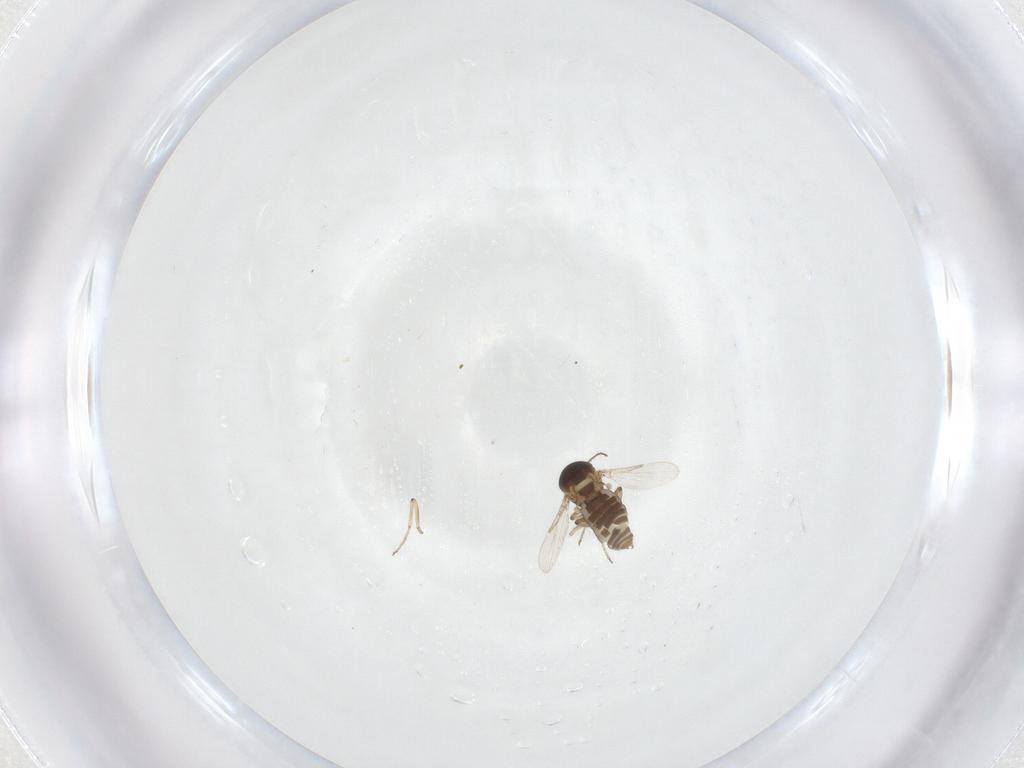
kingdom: Animalia
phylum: Arthropoda
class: Insecta
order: Diptera
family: Ceratopogonidae
